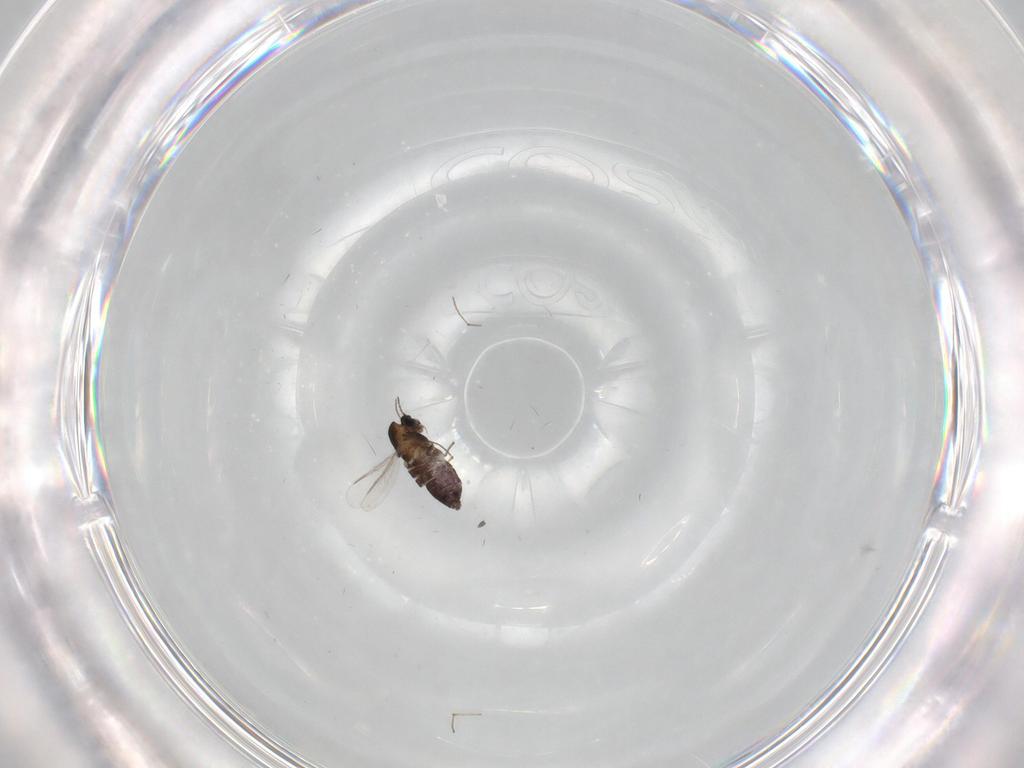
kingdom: Animalia
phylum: Arthropoda
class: Insecta
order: Diptera
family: Chironomidae
